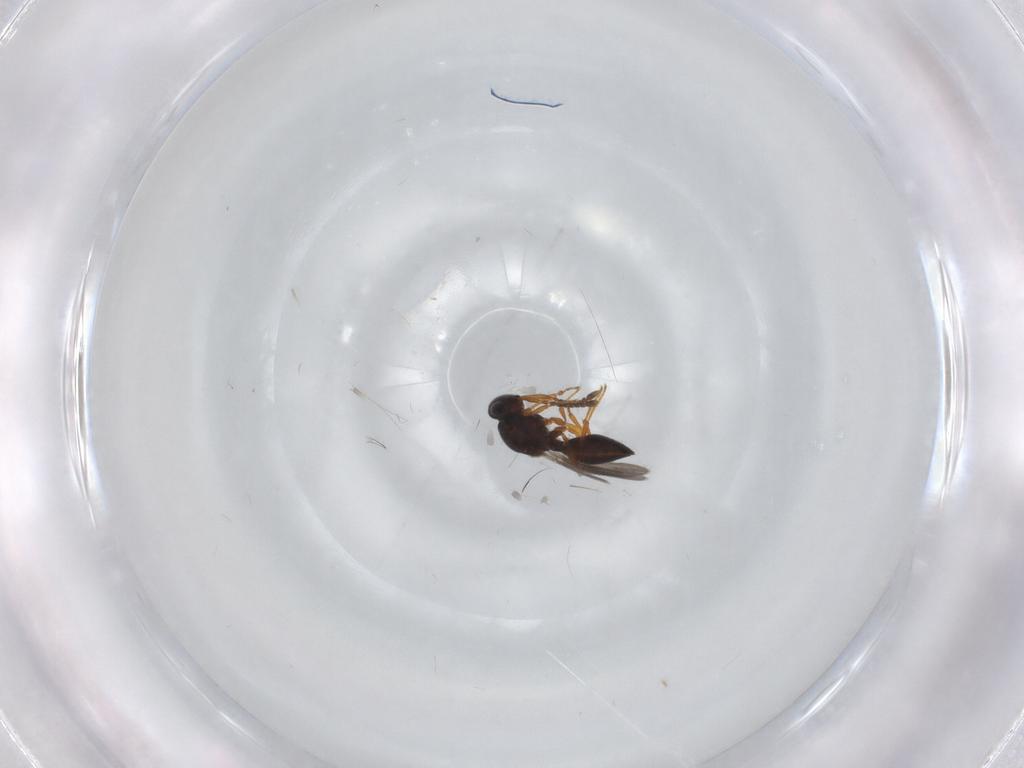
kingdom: Animalia
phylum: Arthropoda
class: Insecta
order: Hymenoptera
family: Platygastridae
